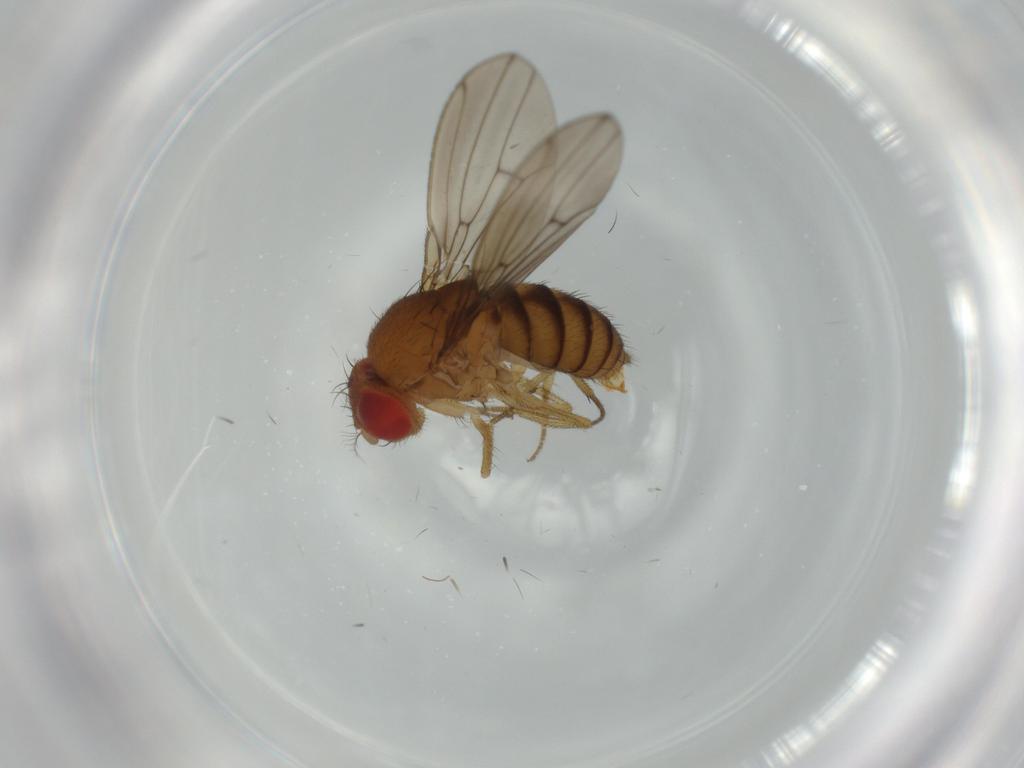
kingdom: Animalia
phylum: Arthropoda
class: Insecta
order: Diptera
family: Drosophilidae
